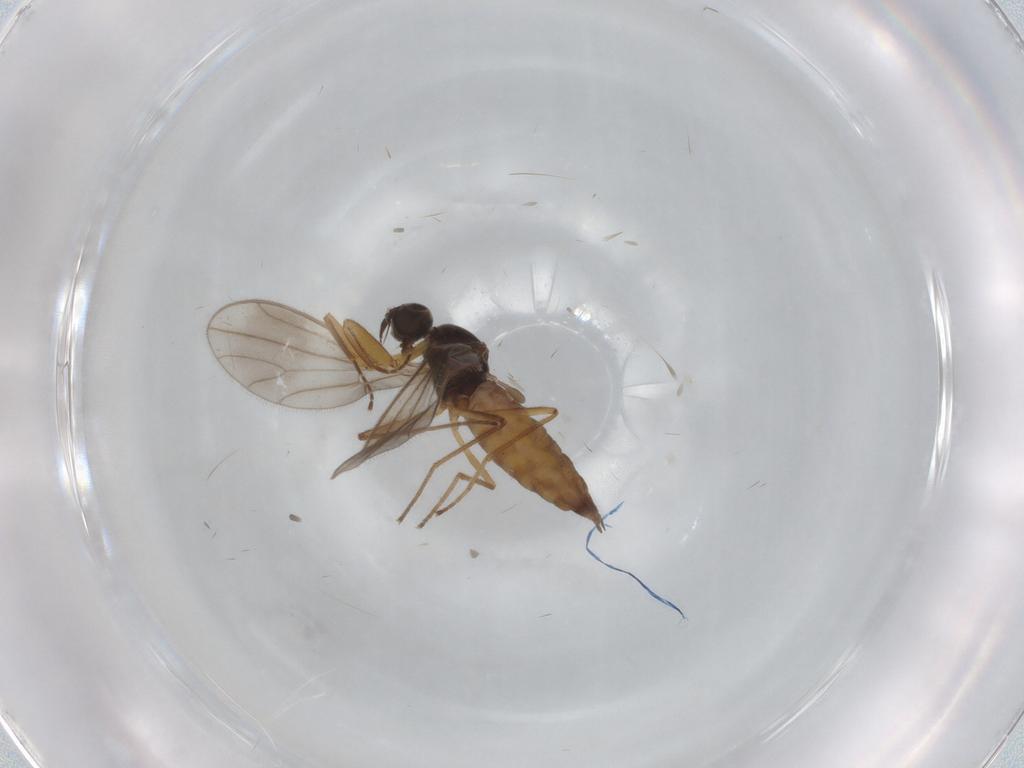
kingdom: Animalia
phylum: Arthropoda
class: Insecta
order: Diptera
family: Empididae
